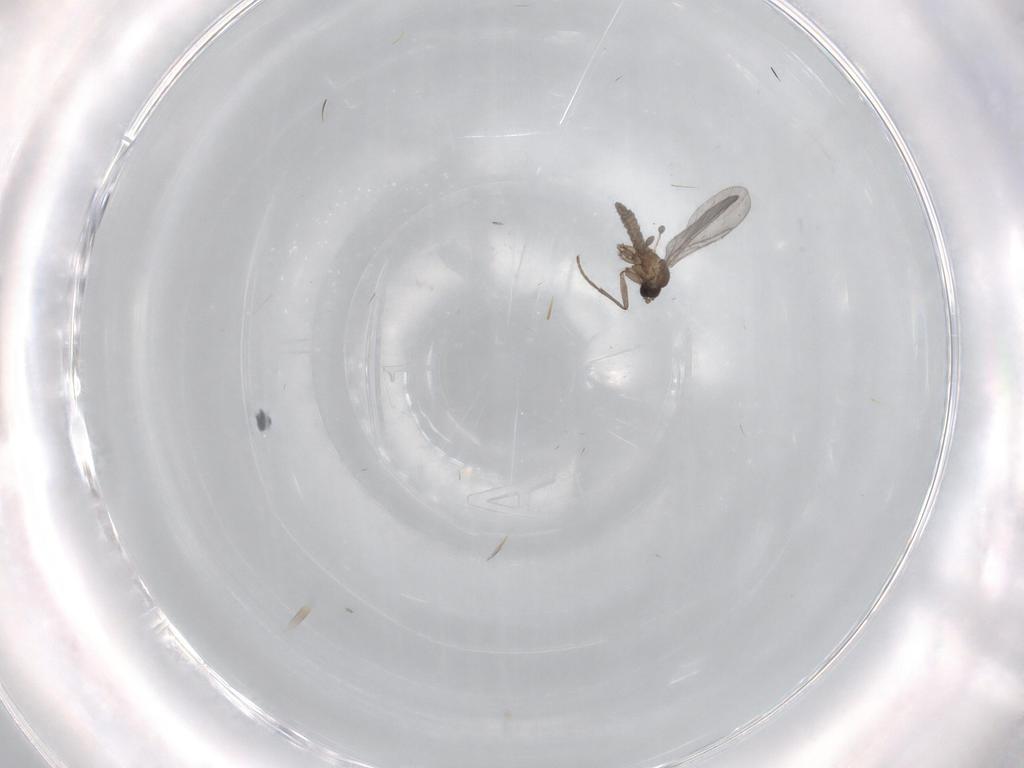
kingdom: Animalia
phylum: Arthropoda
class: Insecta
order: Diptera
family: Sciaridae
